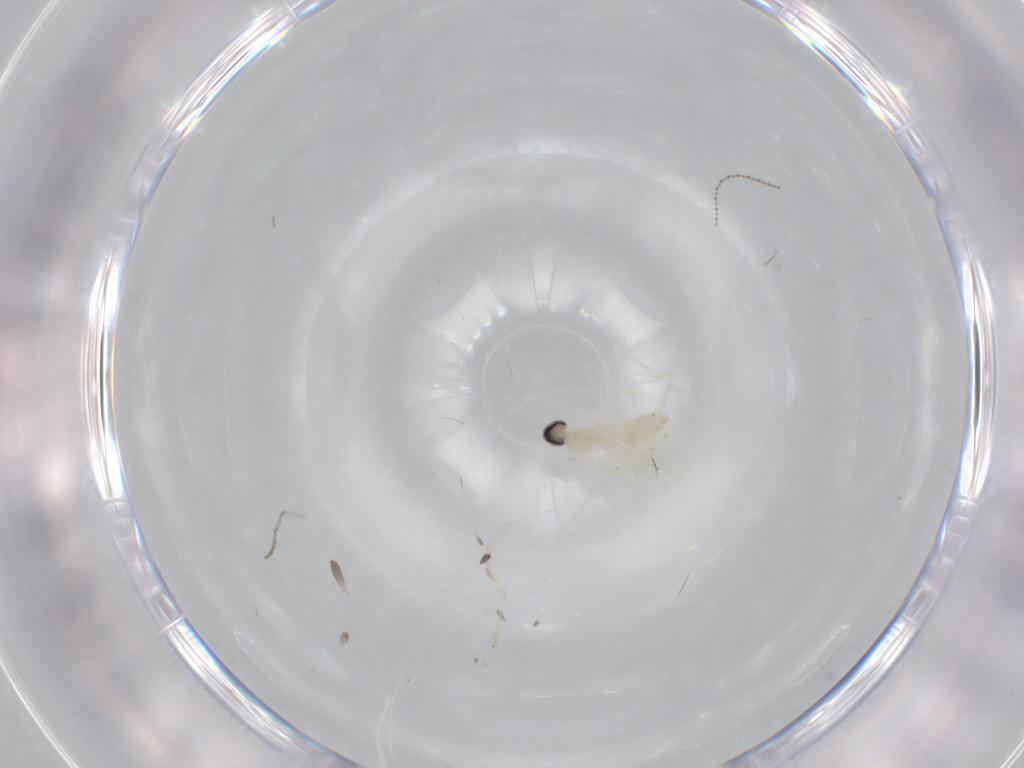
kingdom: Animalia
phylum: Arthropoda
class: Insecta
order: Diptera
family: Cecidomyiidae
